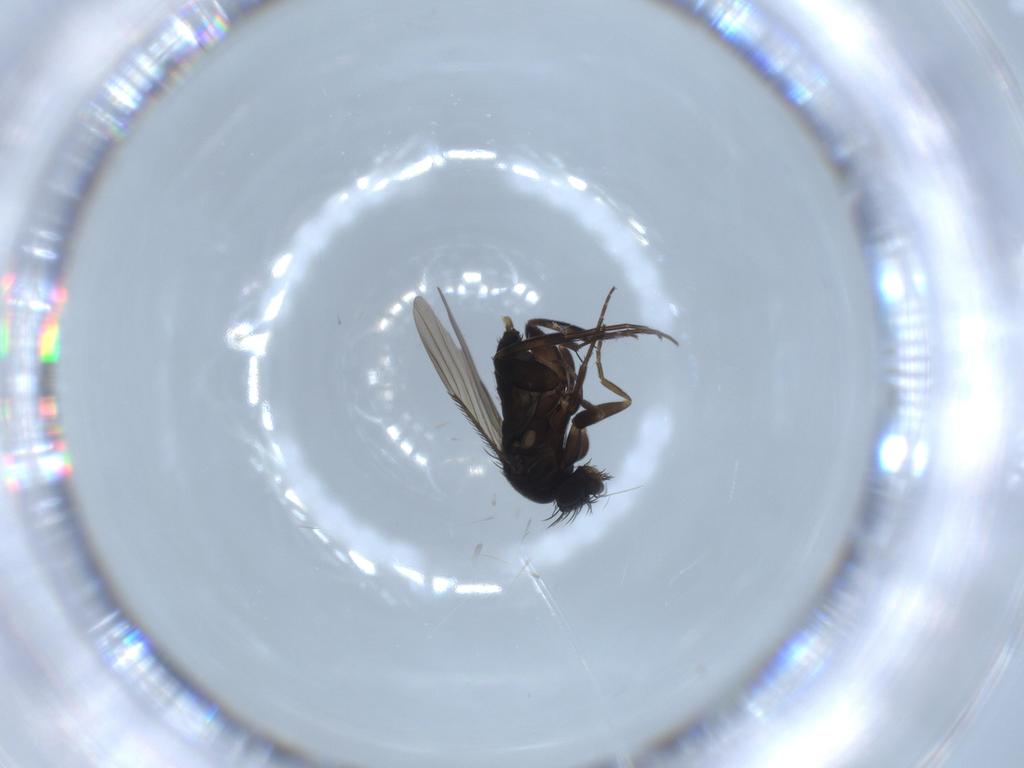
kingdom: Animalia
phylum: Arthropoda
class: Insecta
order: Diptera
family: Phoridae
